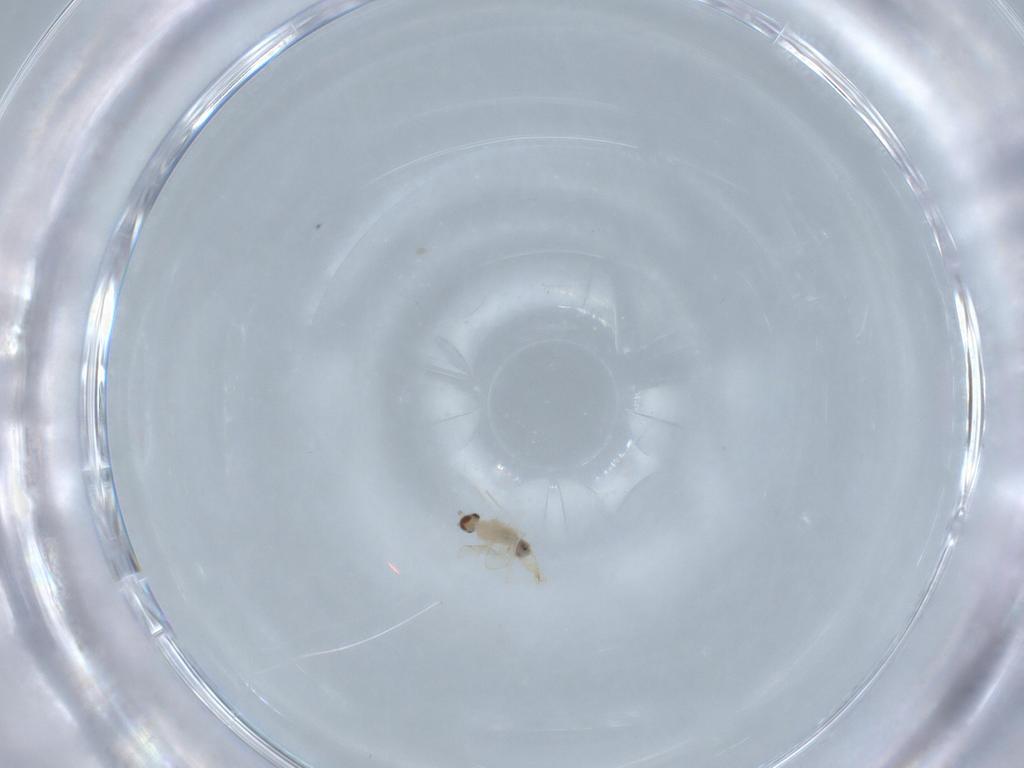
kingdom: Animalia
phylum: Arthropoda
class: Insecta
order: Diptera
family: Cecidomyiidae
